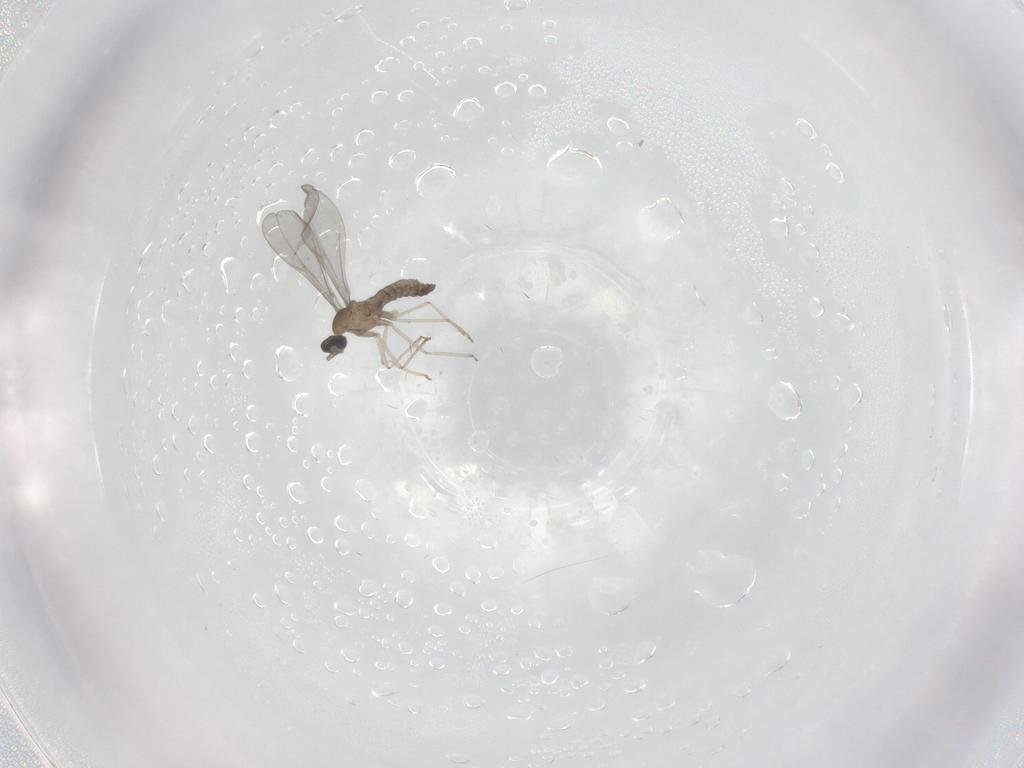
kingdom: Animalia
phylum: Arthropoda
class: Insecta
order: Diptera
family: Cecidomyiidae
